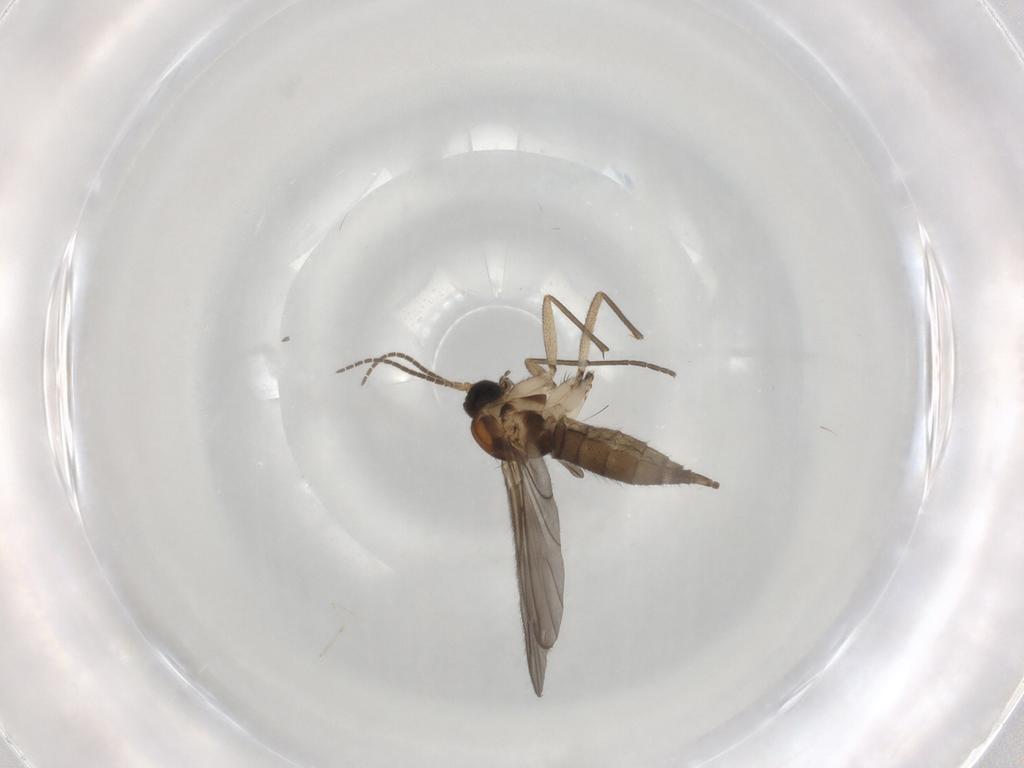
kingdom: Animalia
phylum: Arthropoda
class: Insecta
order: Diptera
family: Sciaridae
